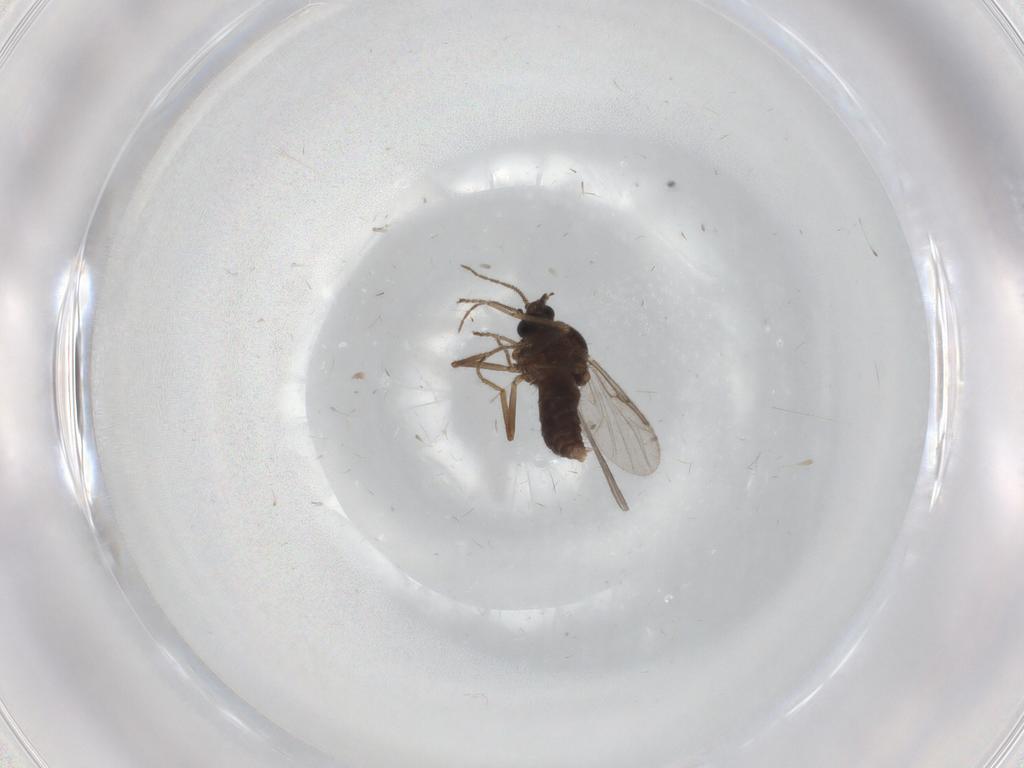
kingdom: Animalia
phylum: Arthropoda
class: Insecta
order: Diptera
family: Ceratopogonidae
